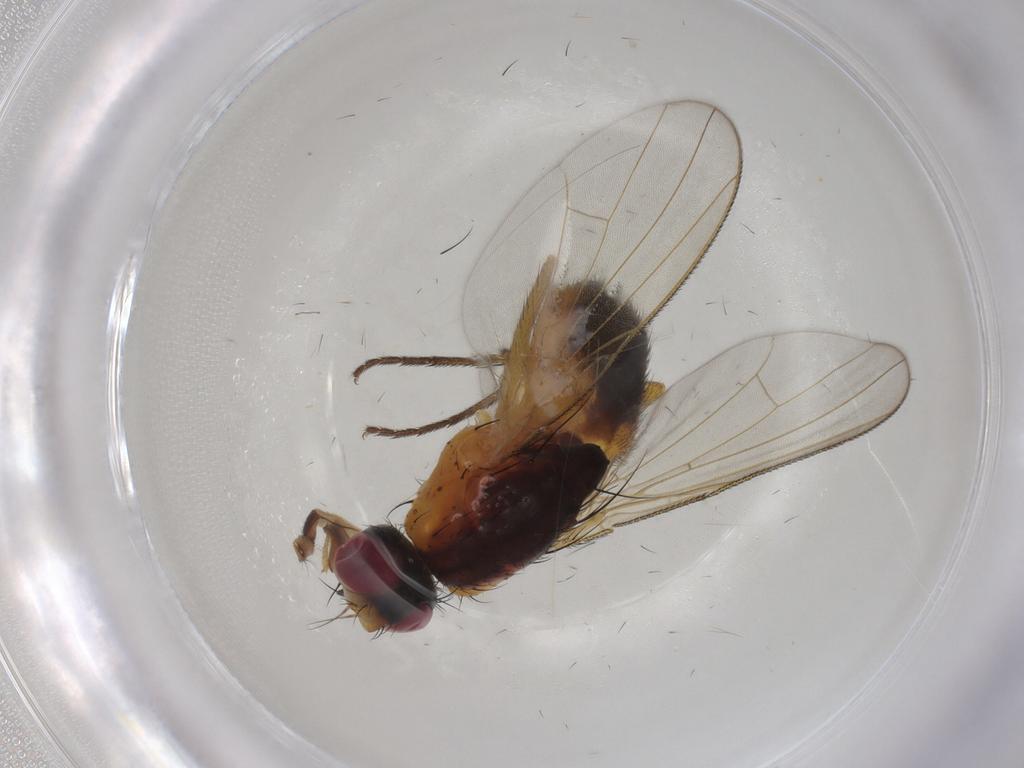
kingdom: Animalia
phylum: Arthropoda
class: Insecta
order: Diptera
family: Muscidae
